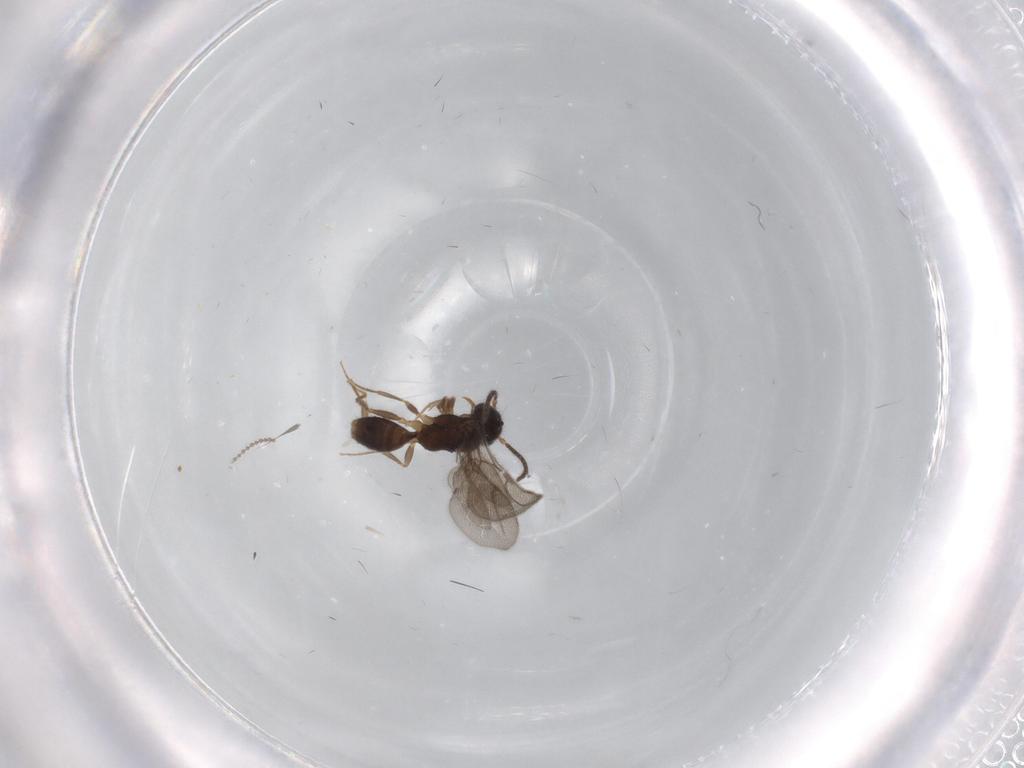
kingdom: Animalia
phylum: Arthropoda
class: Insecta
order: Hymenoptera
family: Bethylidae
